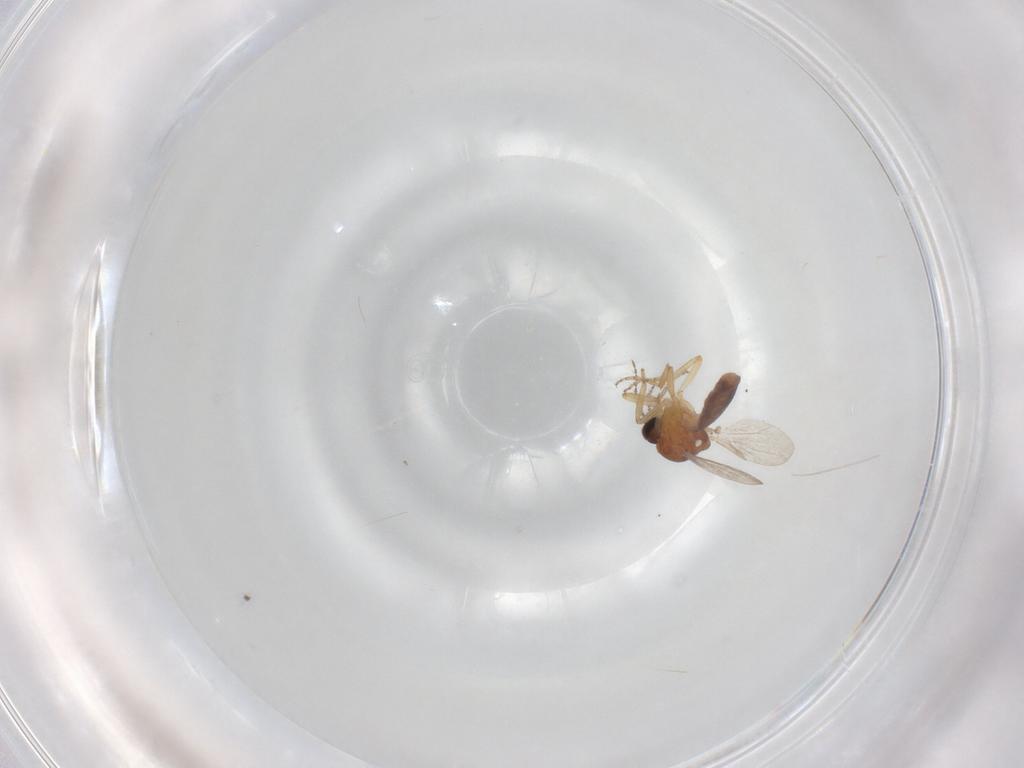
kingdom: Animalia
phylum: Arthropoda
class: Insecta
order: Diptera
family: Ceratopogonidae
